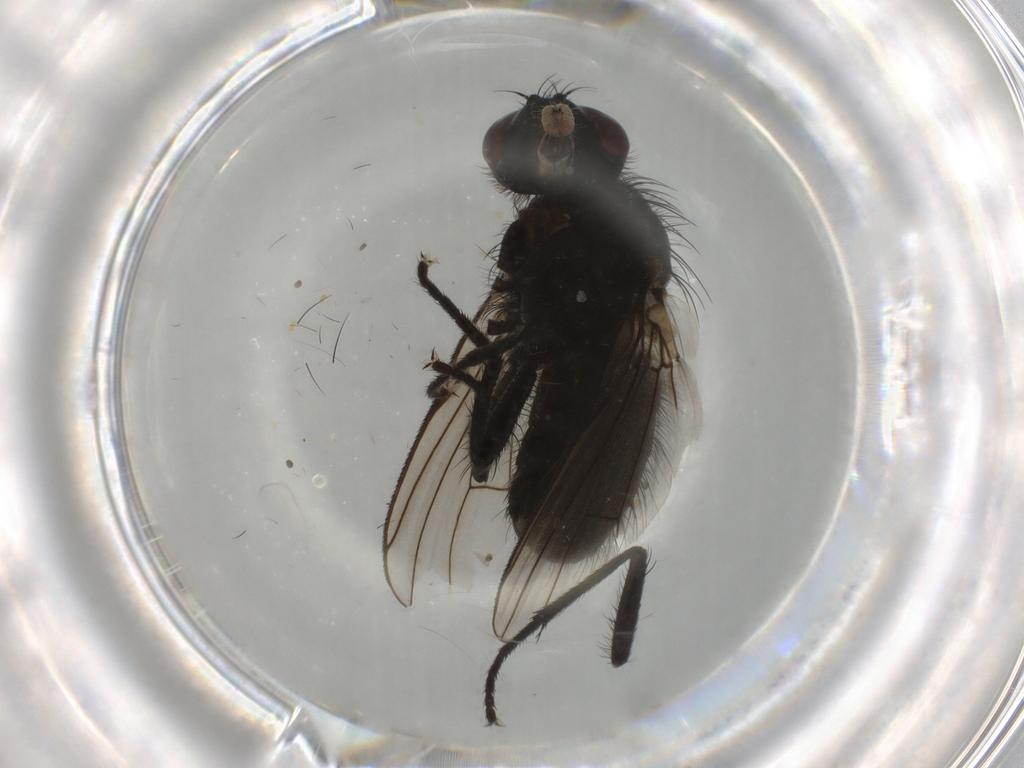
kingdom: Animalia
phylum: Arthropoda
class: Insecta
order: Diptera
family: Muscidae
